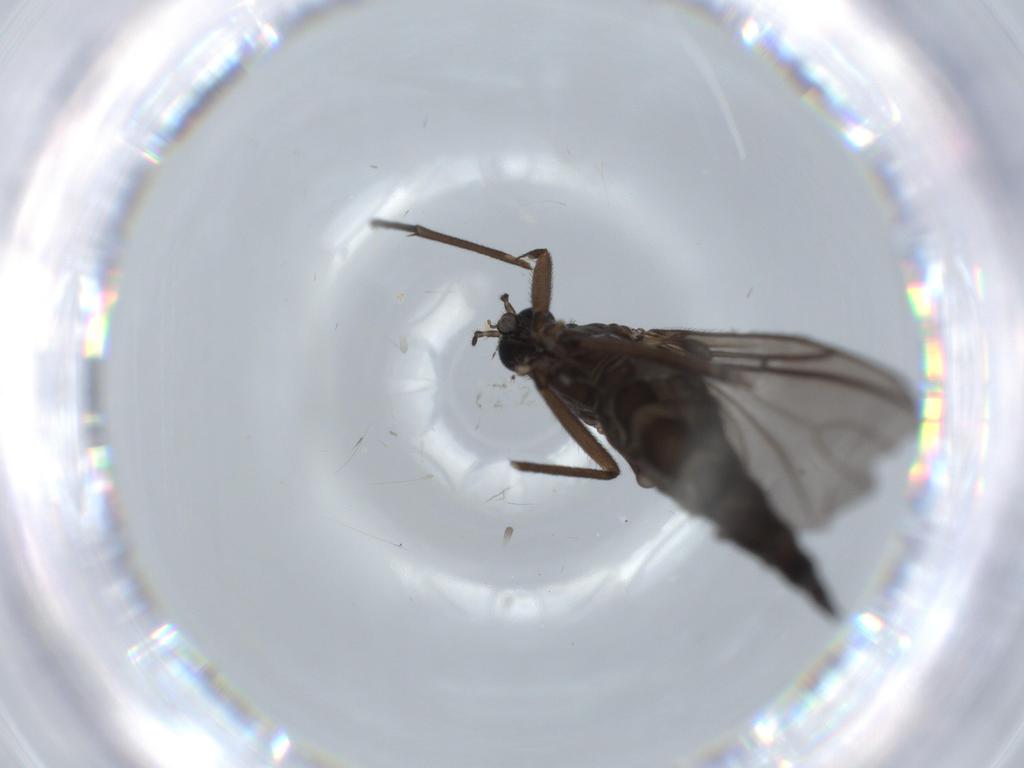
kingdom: Animalia
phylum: Arthropoda
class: Insecta
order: Diptera
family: Sciaridae
